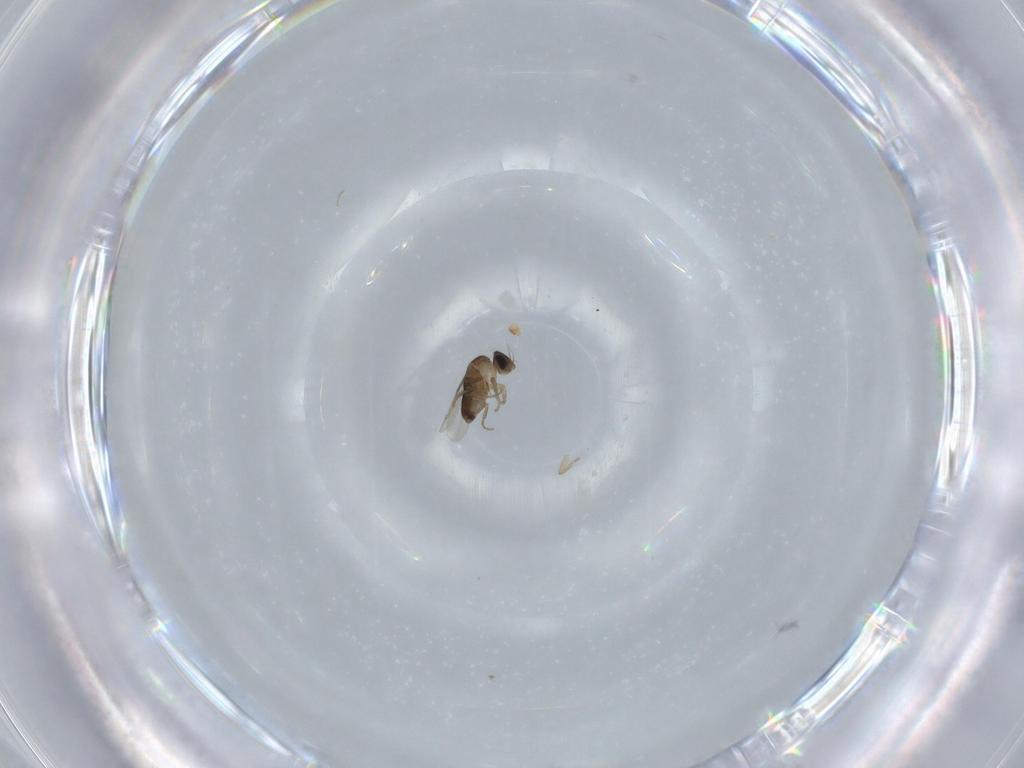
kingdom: Animalia
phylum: Arthropoda
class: Insecta
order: Diptera
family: Phoridae
